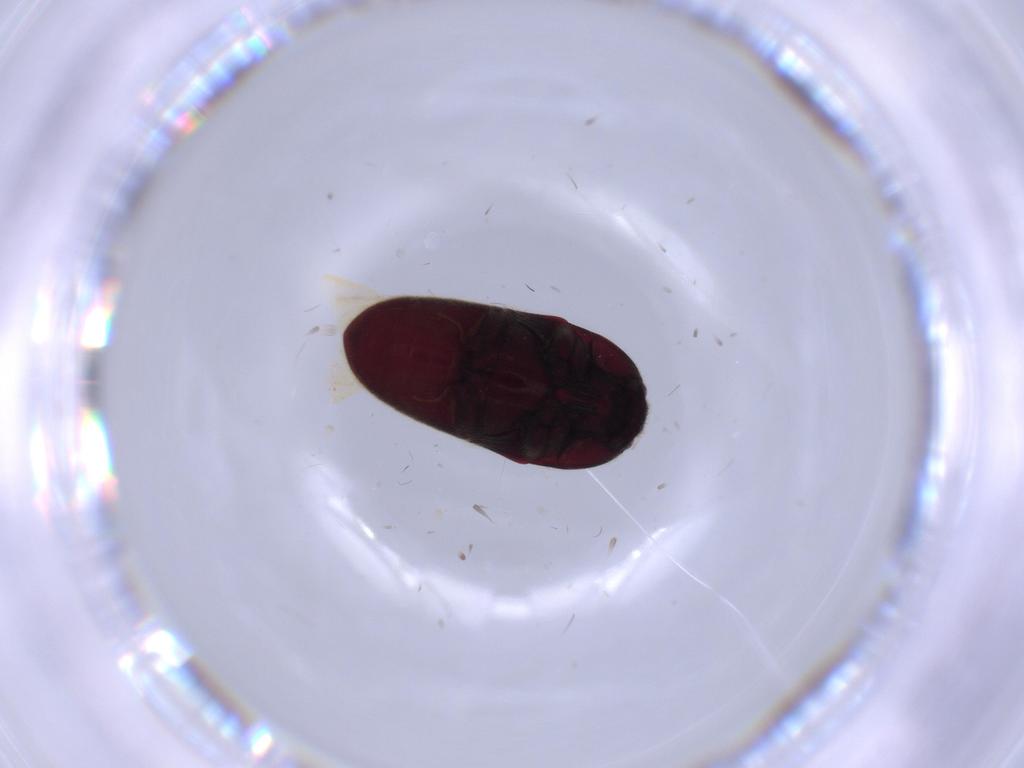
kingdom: Animalia
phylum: Arthropoda
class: Insecta
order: Coleoptera
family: Throscidae
